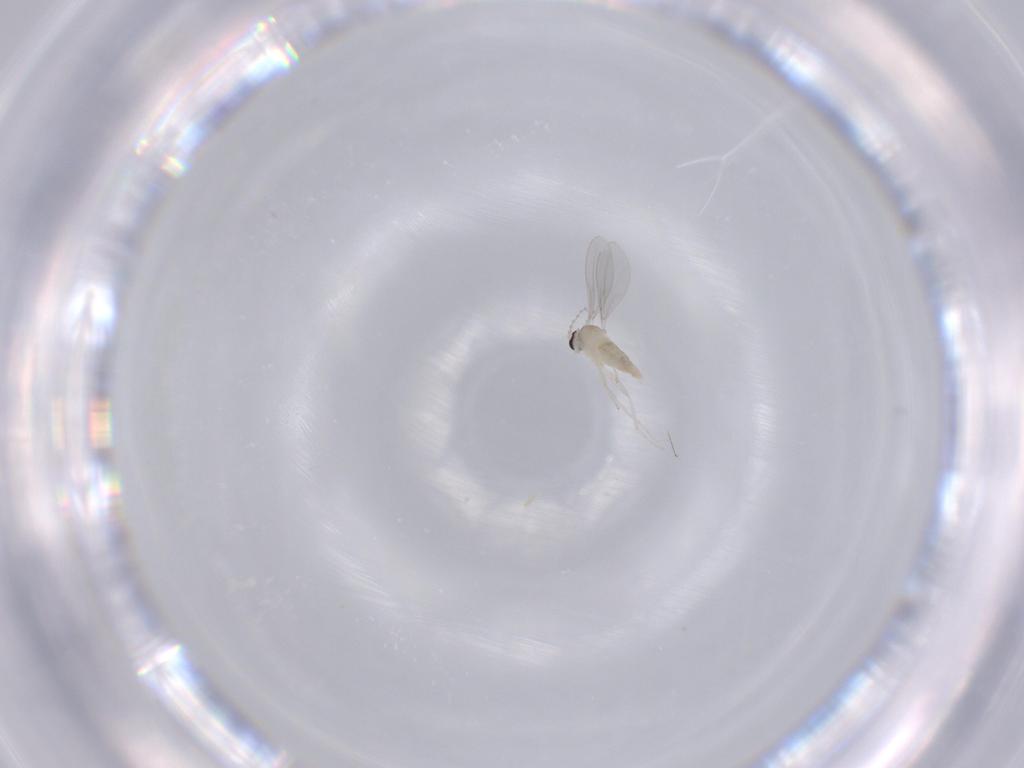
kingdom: Animalia
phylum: Arthropoda
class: Insecta
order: Diptera
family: Cecidomyiidae
